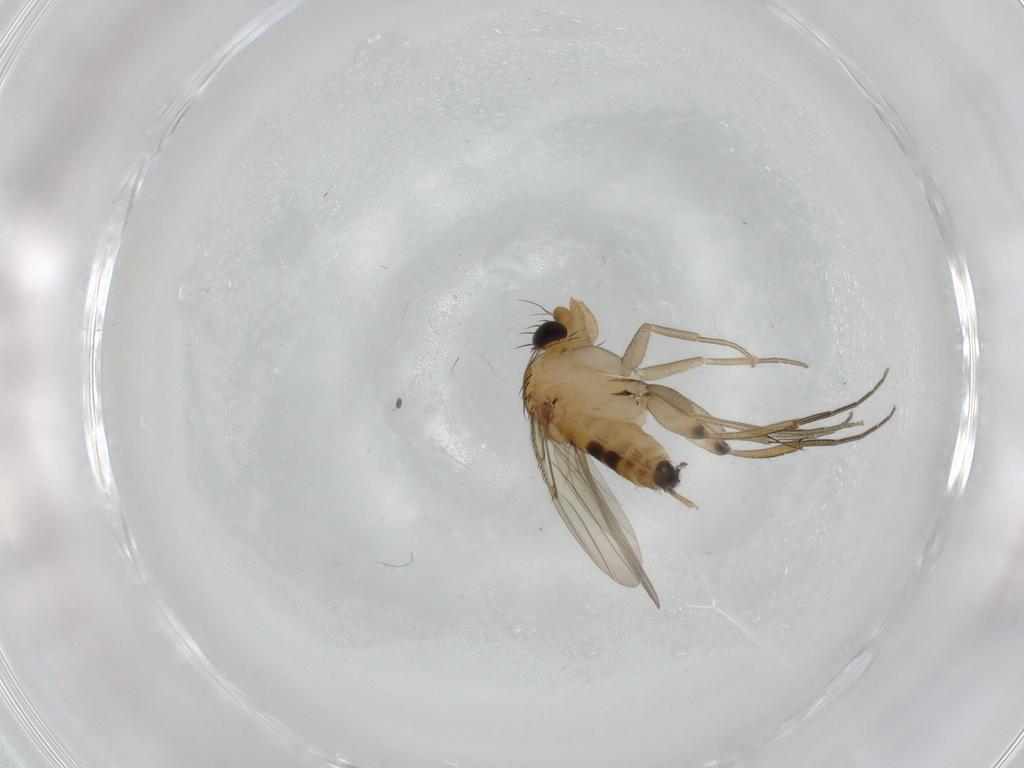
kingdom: Animalia
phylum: Arthropoda
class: Insecta
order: Diptera
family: Phoridae
